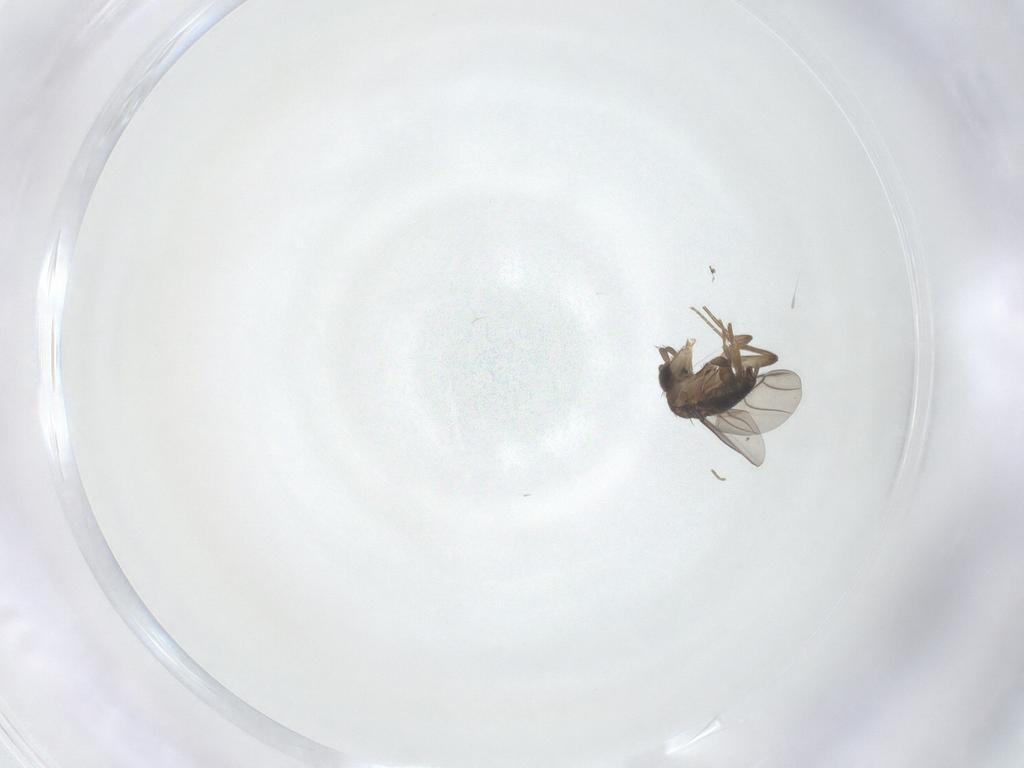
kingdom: Animalia
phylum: Arthropoda
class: Insecta
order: Diptera
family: Phoridae
